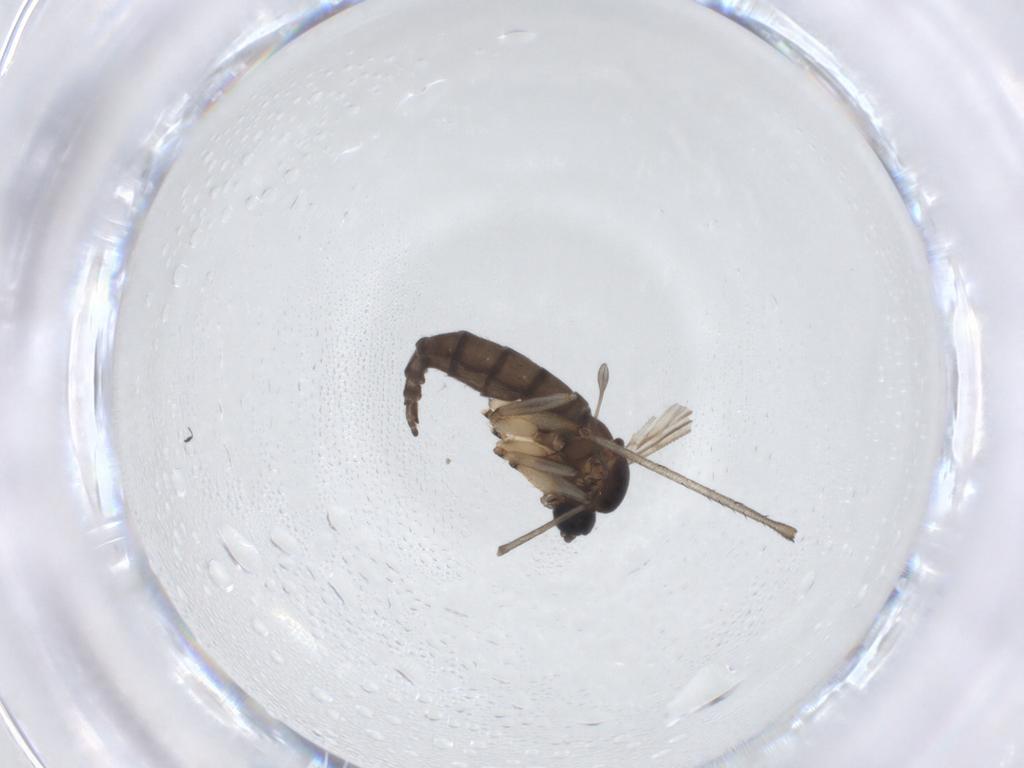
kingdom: Animalia
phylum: Arthropoda
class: Insecta
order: Diptera
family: Sciaridae
